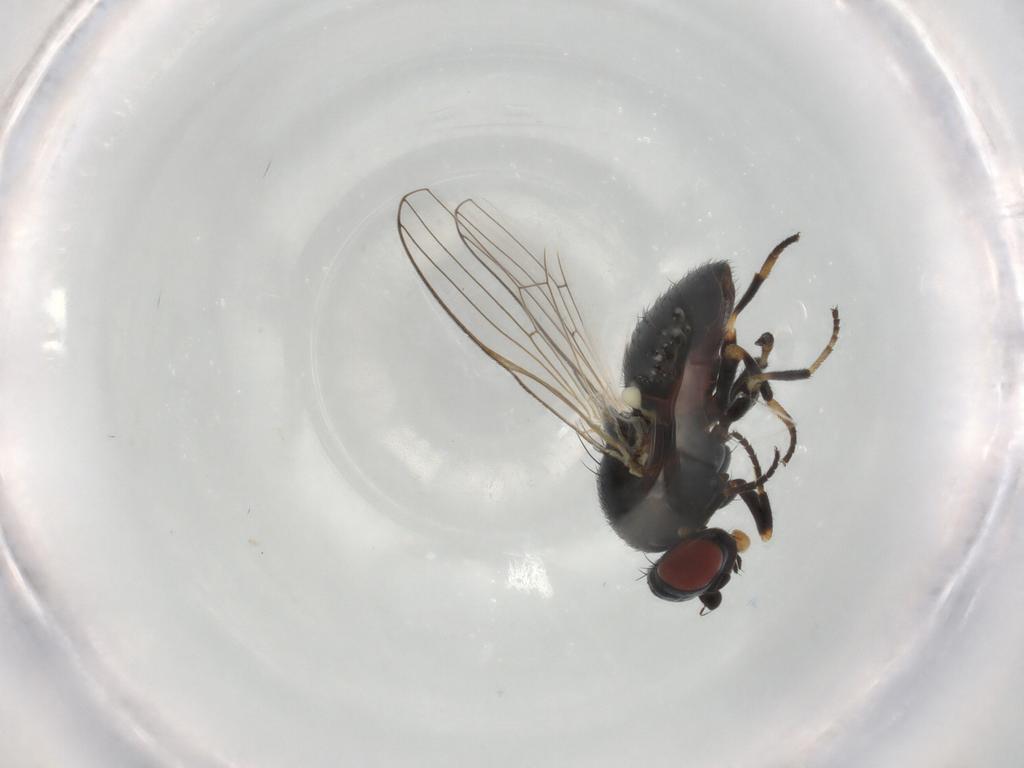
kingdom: Animalia
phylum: Arthropoda
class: Insecta
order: Diptera
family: Chamaemyiidae
